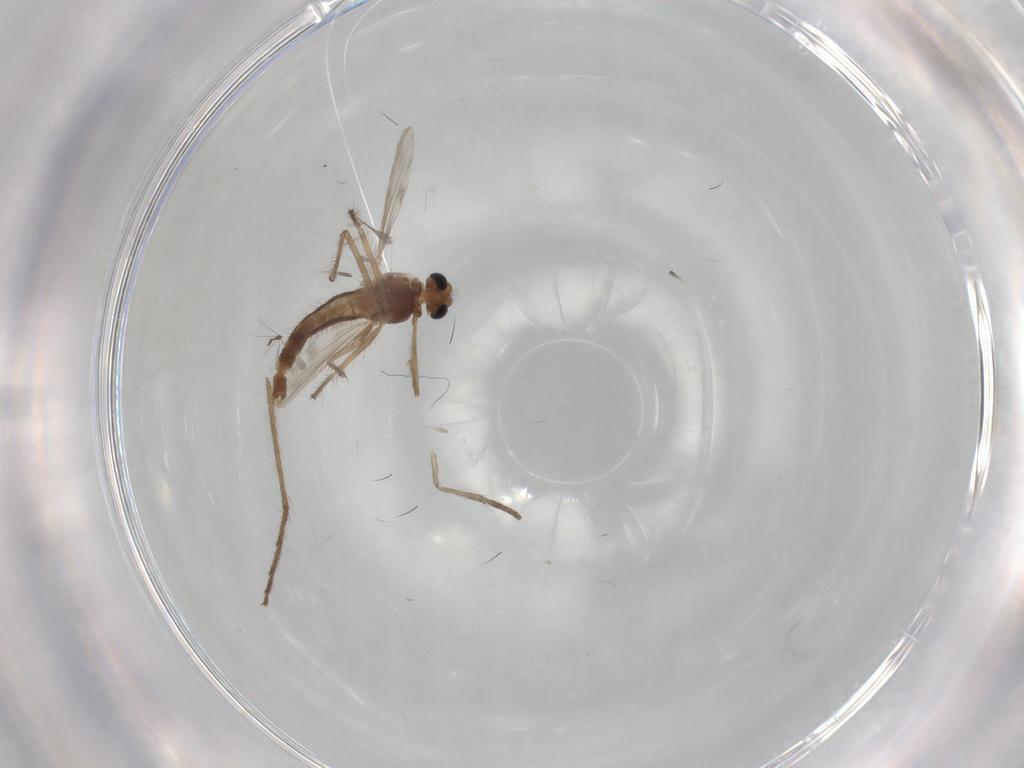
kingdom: Animalia
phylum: Arthropoda
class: Insecta
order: Diptera
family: Chironomidae
